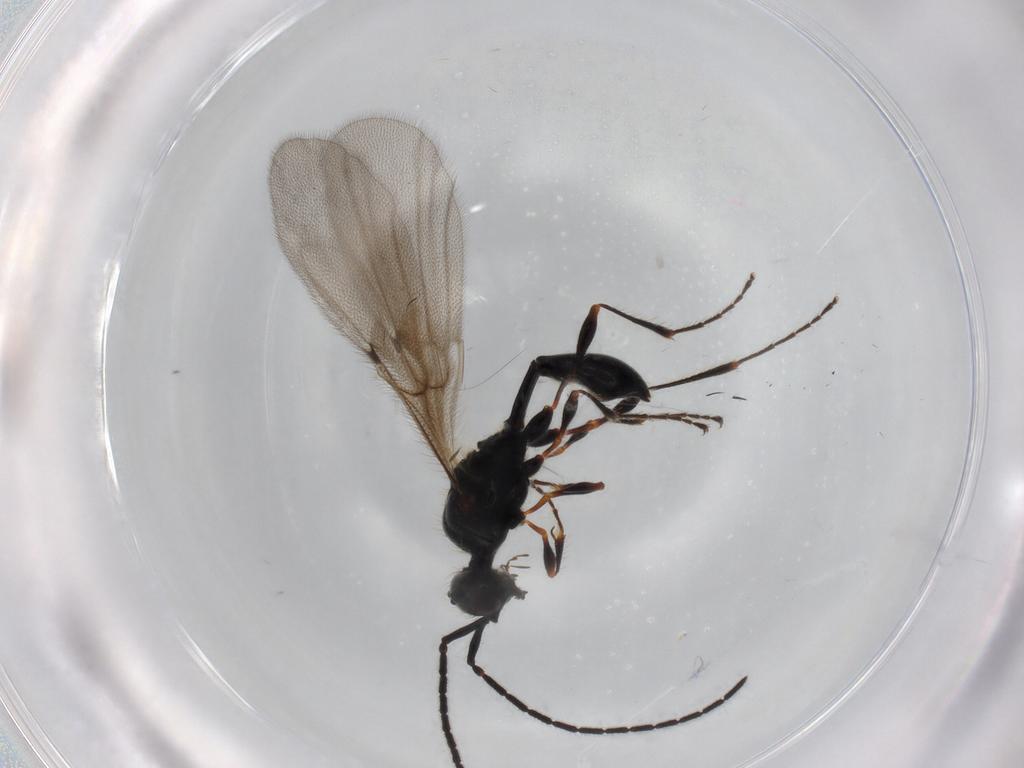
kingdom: Animalia
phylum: Arthropoda
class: Insecta
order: Hymenoptera
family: Diapriidae
